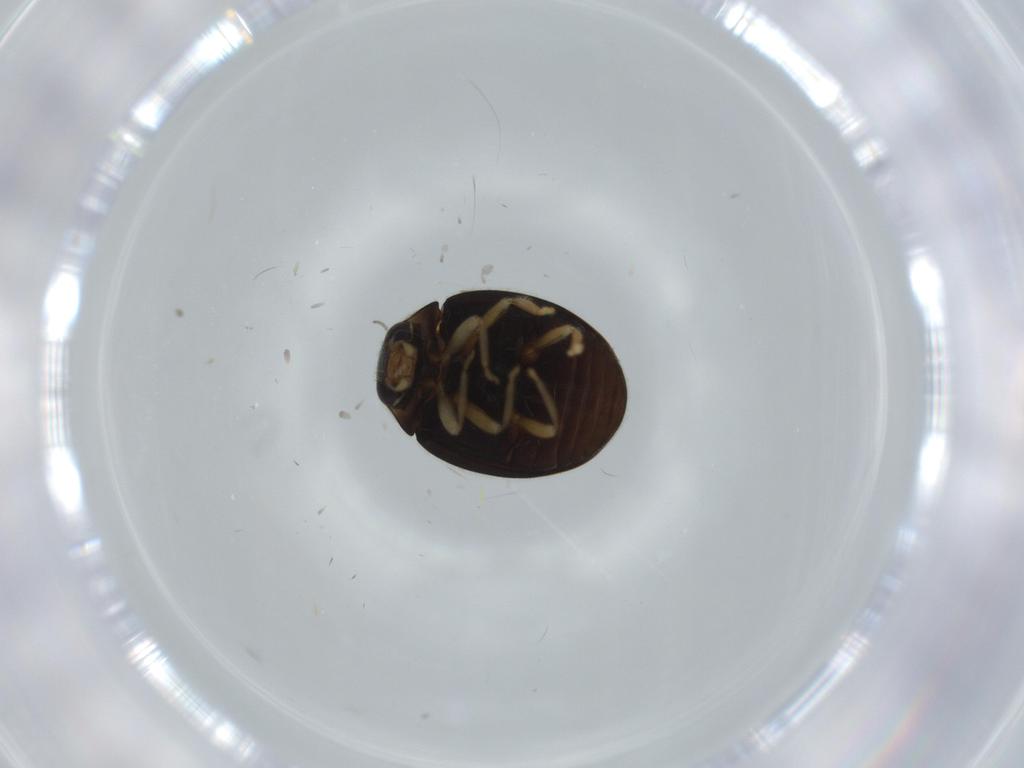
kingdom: Animalia
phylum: Arthropoda
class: Insecta
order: Coleoptera
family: Coccinellidae
